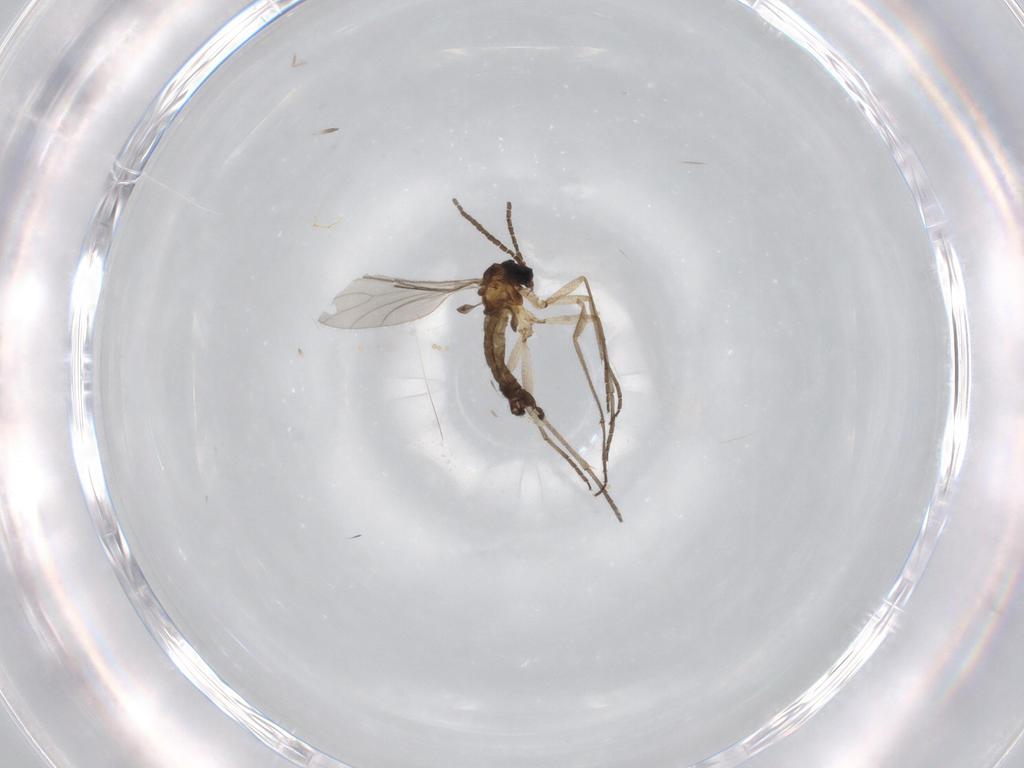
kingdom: Animalia
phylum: Arthropoda
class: Insecta
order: Diptera
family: Sciaridae
